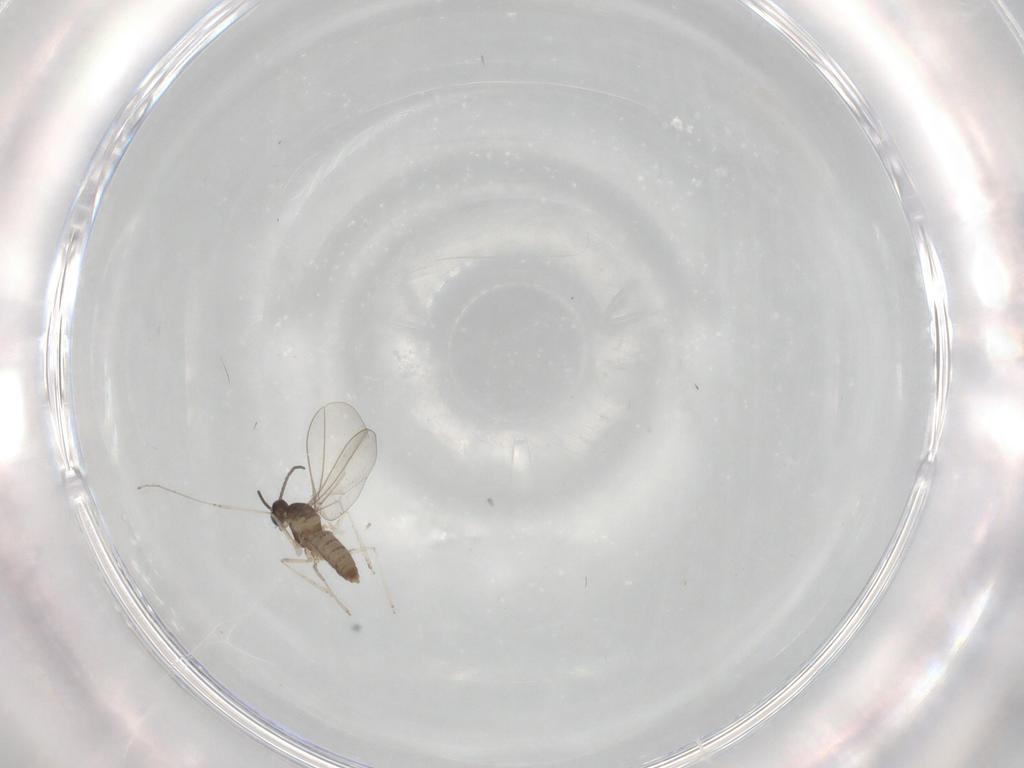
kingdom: Animalia
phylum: Arthropoda
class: Insecta
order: Diptera
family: Cecidomyiidae
